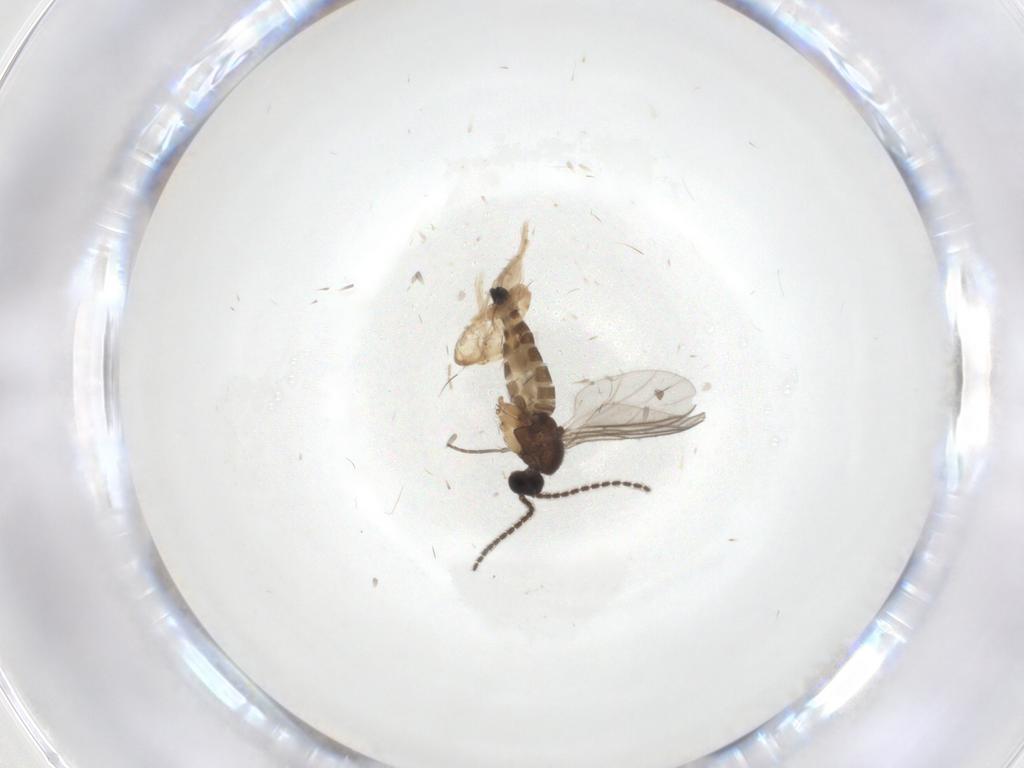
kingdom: Animalia
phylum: Arthropoda
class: Insecta
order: Diptera
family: Sciaridae
